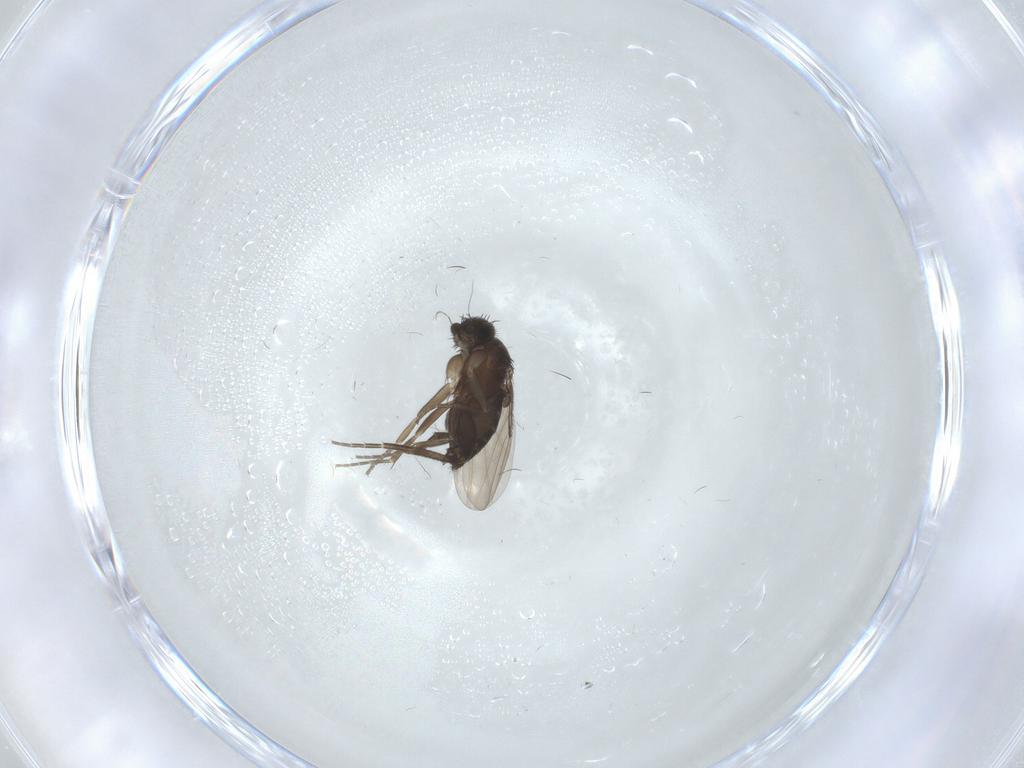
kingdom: Animalia
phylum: Arthropoda
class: Insecta
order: Diptera
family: Phoridae
